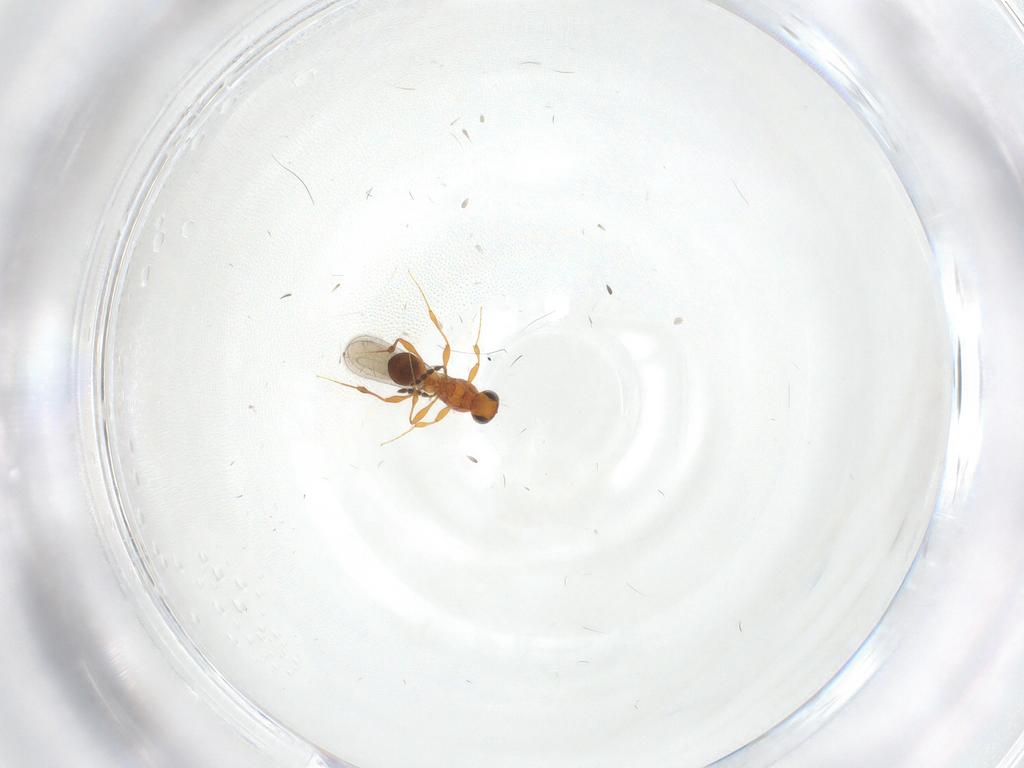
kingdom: Animalia
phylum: Arthropoda
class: Insecta
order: Hymenoptera
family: Platygastridae
